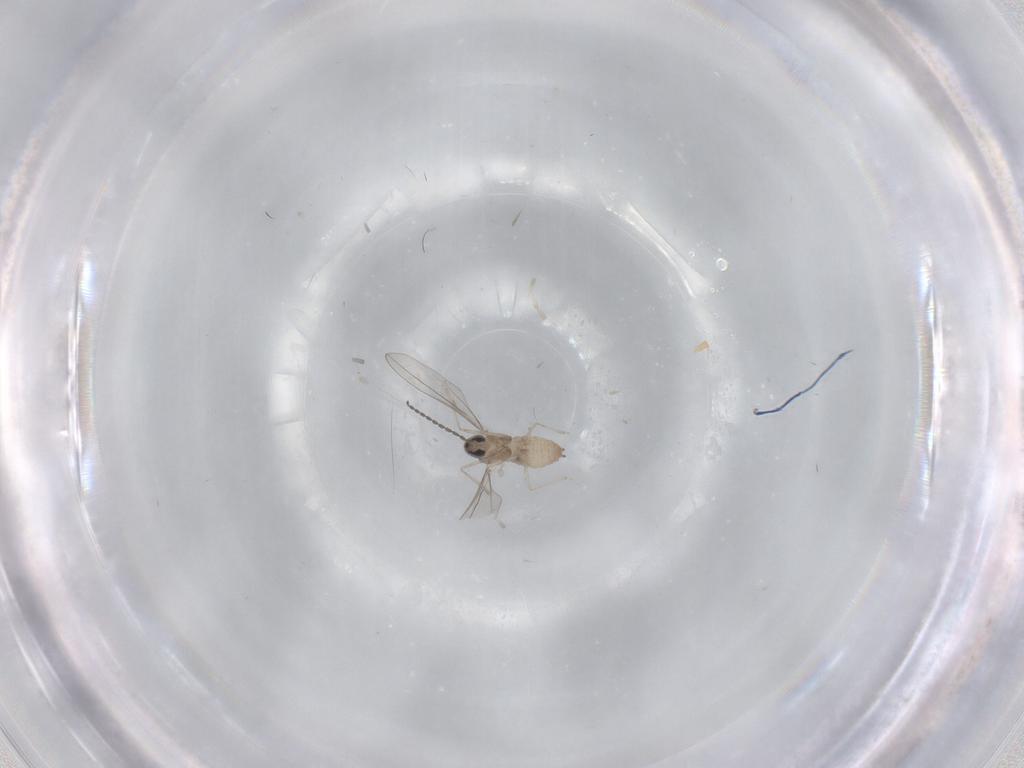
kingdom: Animalia
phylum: Arthropoda
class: Insecta
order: Diptera
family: Cecidomyiidae
